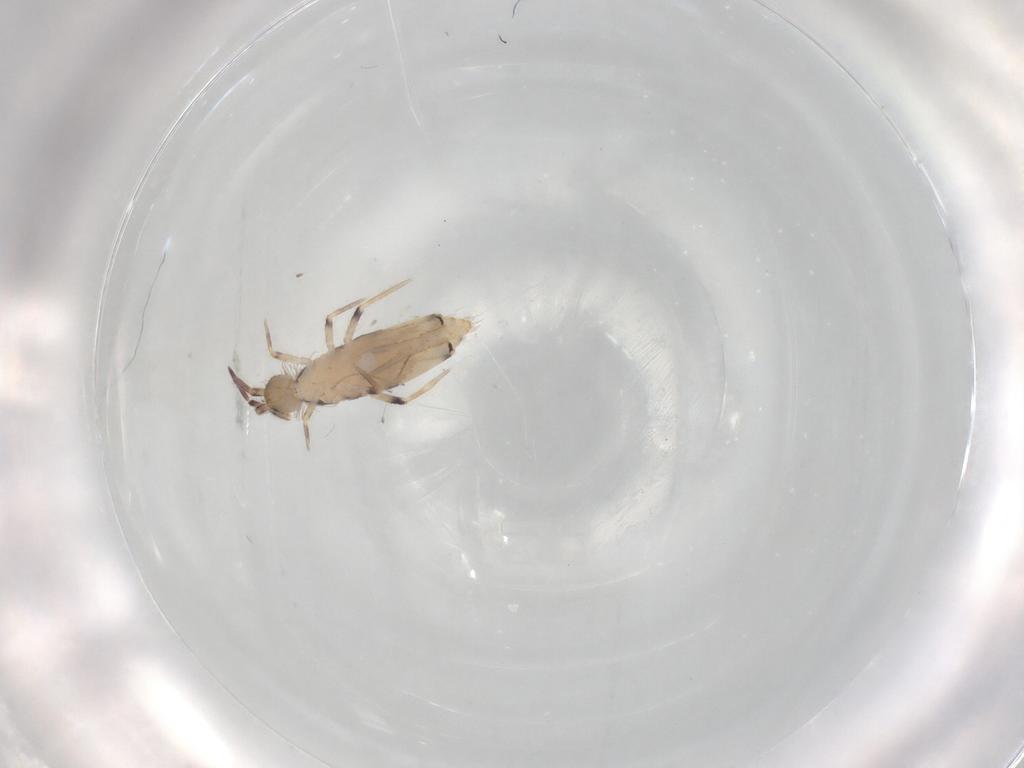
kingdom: Animalia
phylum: Arthropoda
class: Collembola
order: Entomobryomorpha
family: Entomobryidae
